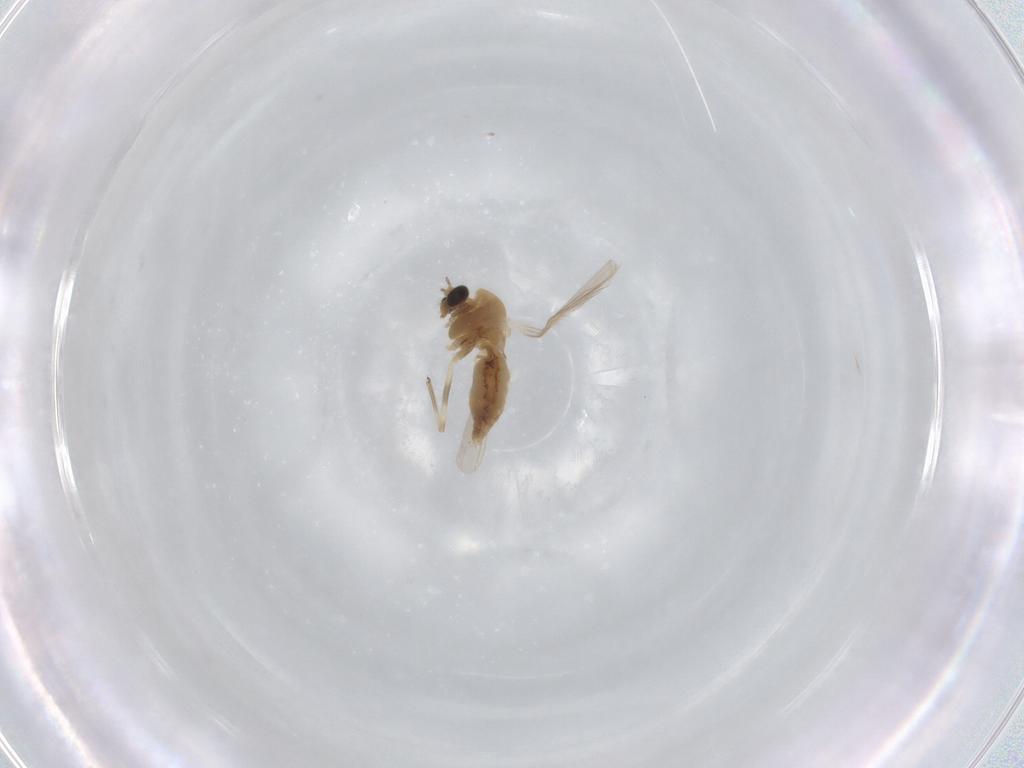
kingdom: Animalia
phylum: Arthropoda
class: Insecta
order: Diptera
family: Chironomidae
